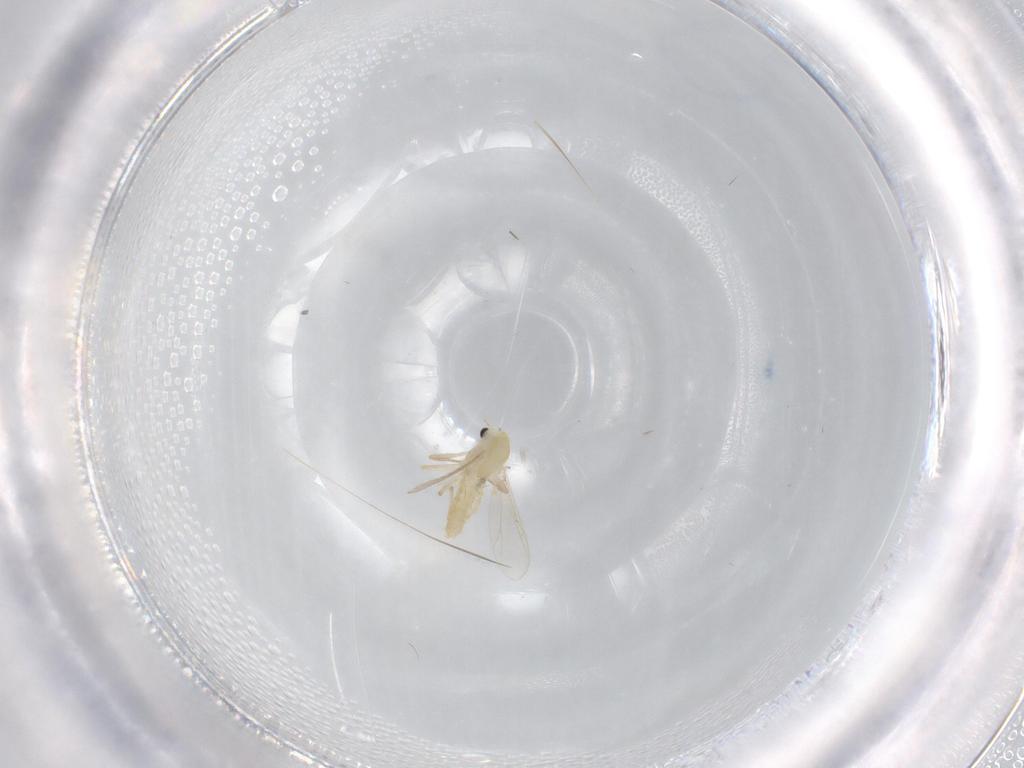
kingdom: Animalia
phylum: Arthropoda
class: Insecta
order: Diptera
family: Chironomidae
